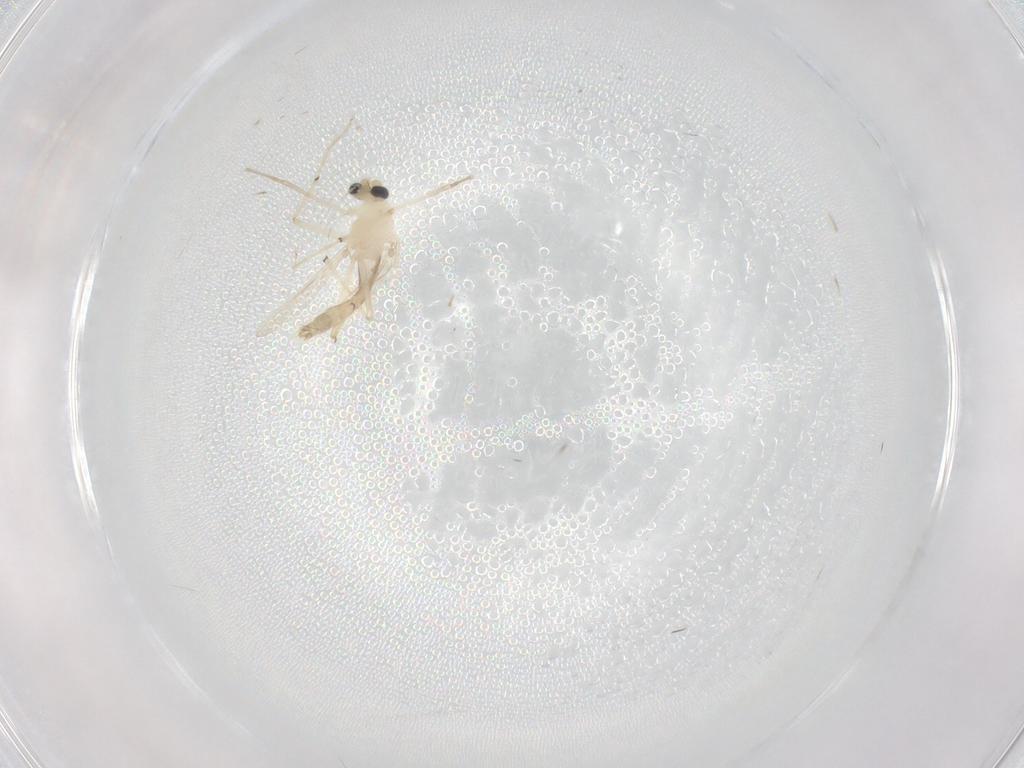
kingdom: Animalia
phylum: Arthropoda
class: Insecta
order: Diptera
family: Chironomidae
